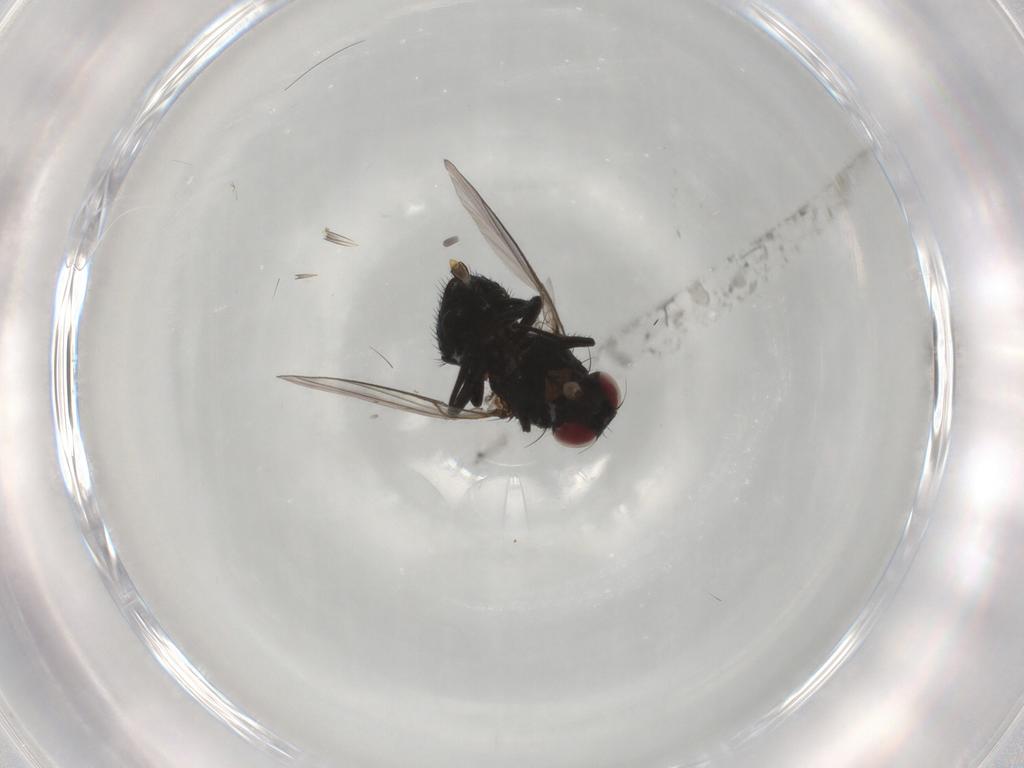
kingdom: Animalia
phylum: Arthropoda
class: Insecta
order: Diptera
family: Agromyzidae
